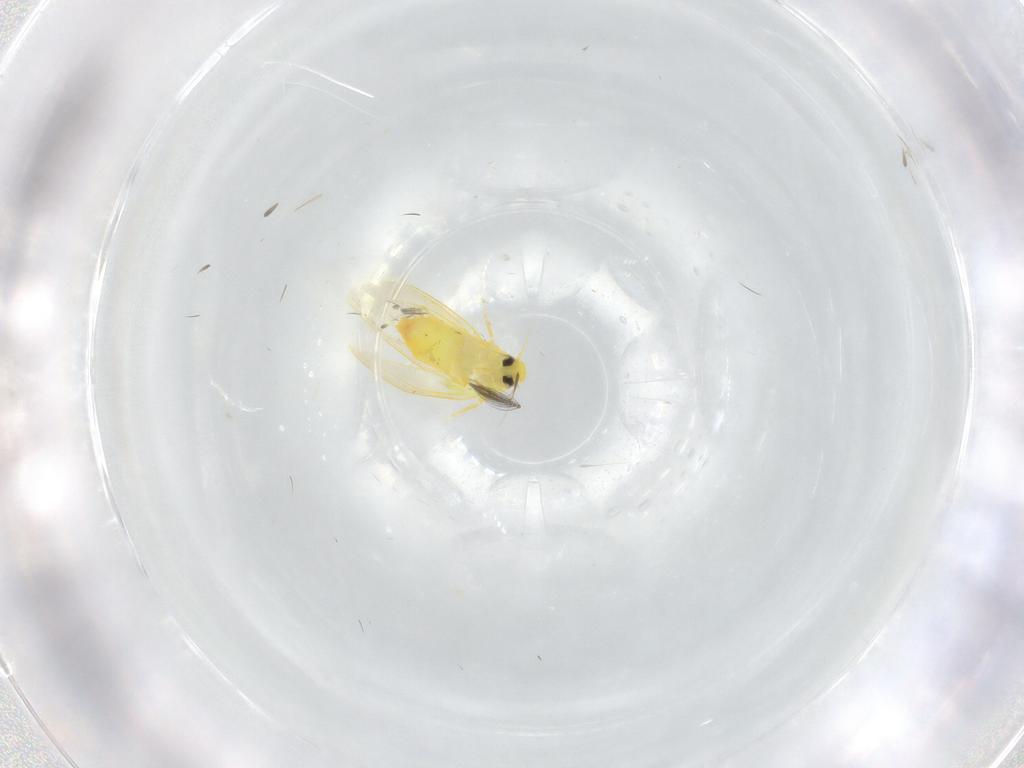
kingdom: Animalia
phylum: Arthropoda
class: Insecta
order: Hemiptera
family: Aleyrodidae
